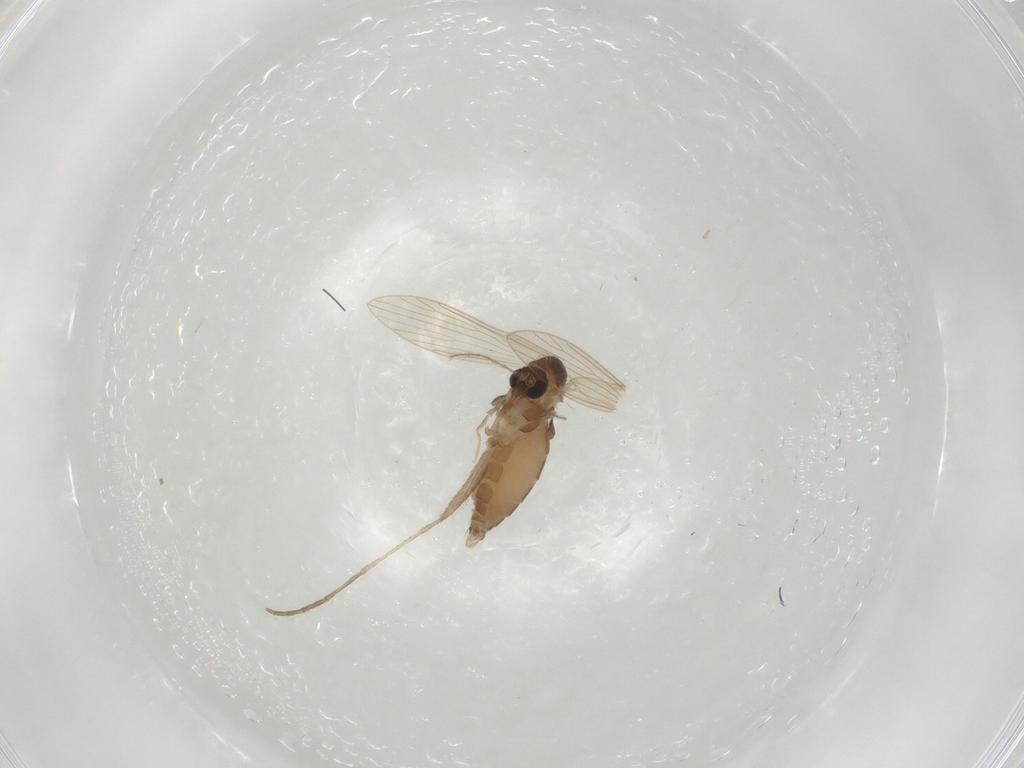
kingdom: Animalia
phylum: Arthropoda
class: Insecta
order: Diptera
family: Psychodidae
